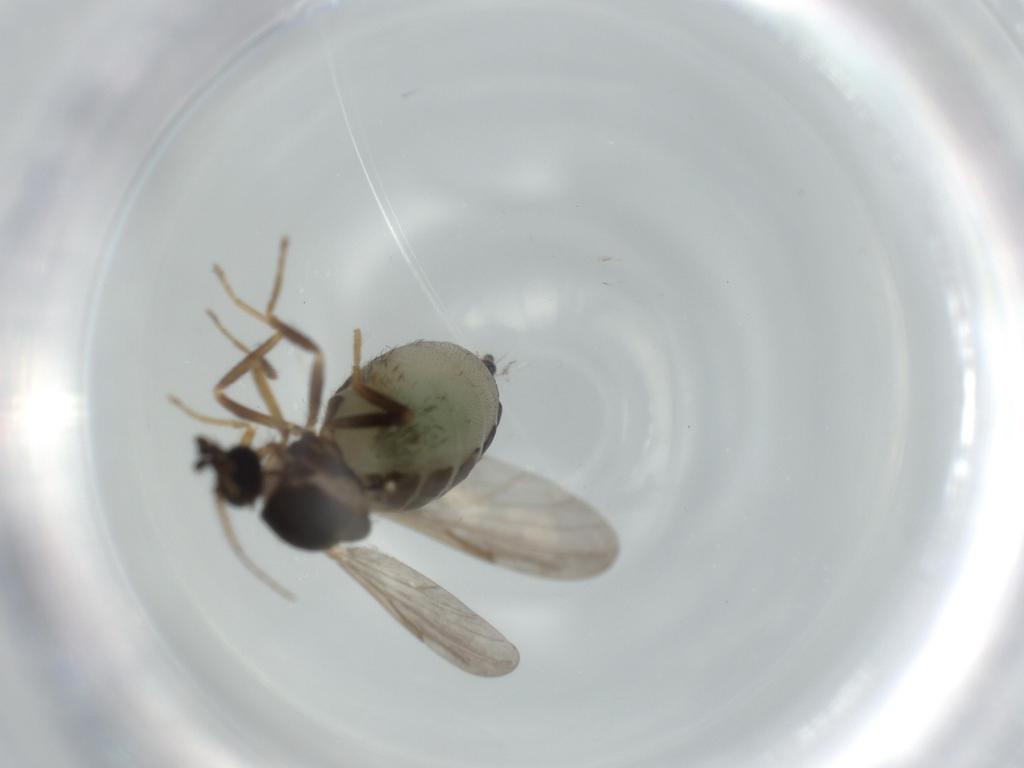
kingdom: Animalia
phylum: Arthropoda
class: Insecta
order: Diptera
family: Ceratopogonidae
